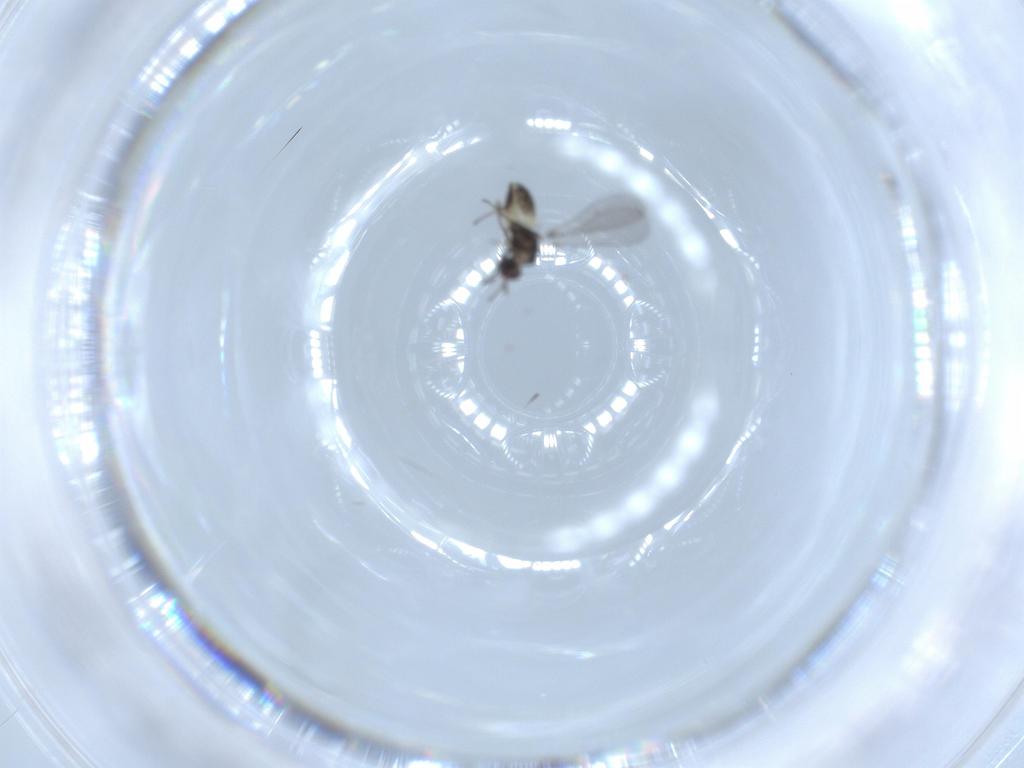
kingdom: Animalia
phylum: Arthropoda
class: Insecta
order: Hymenoptera
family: Mymaridae
